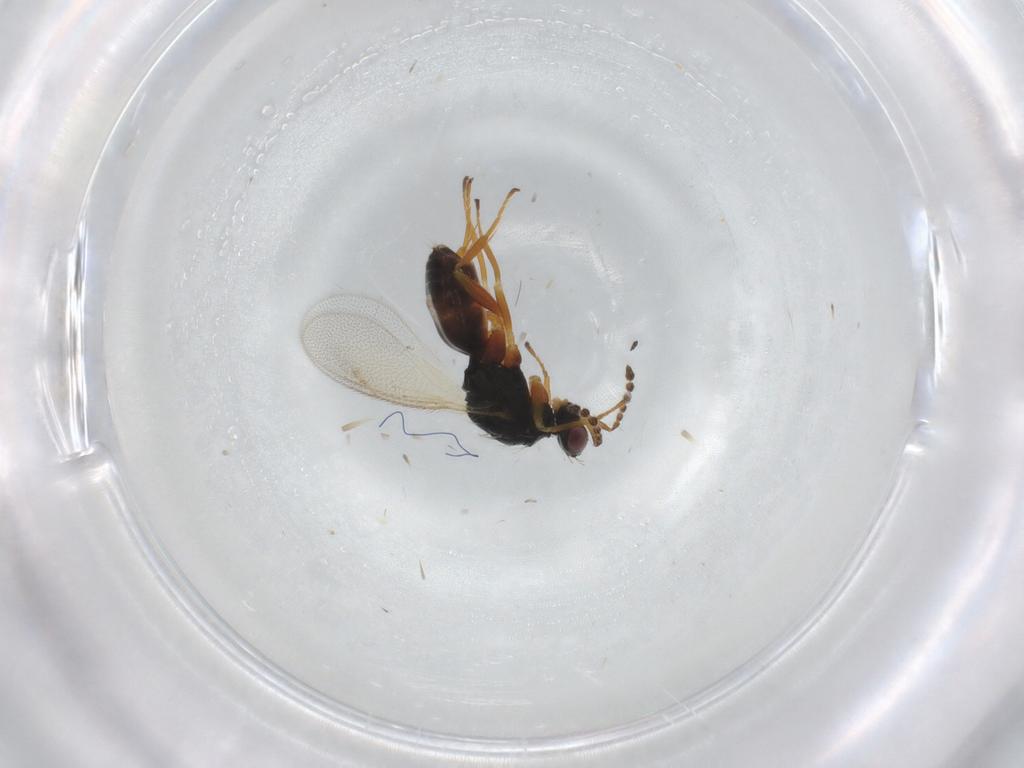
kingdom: Animalia
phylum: Arthropoda
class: Insecta
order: Hymenoptera
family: Eulophidae
